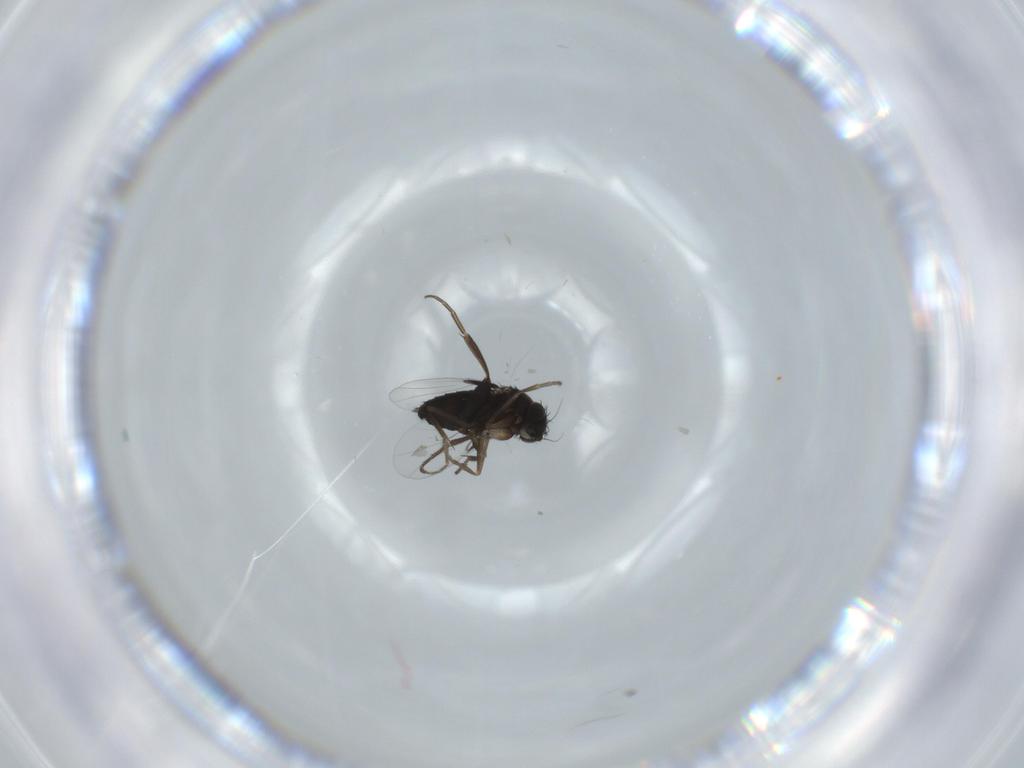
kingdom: Animalia
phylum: Arthropoda
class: Insecta
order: Diptera
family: Phoridae
